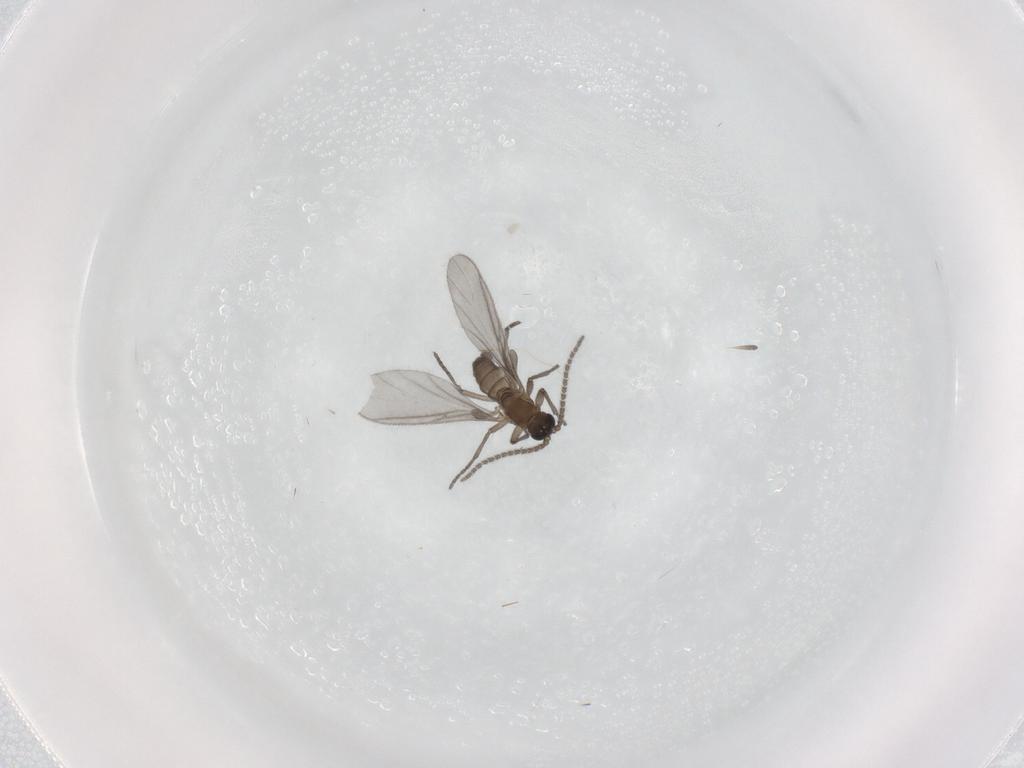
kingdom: Animalia
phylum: Arthropoda
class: Insecta
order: Diptera
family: Sciaridae
